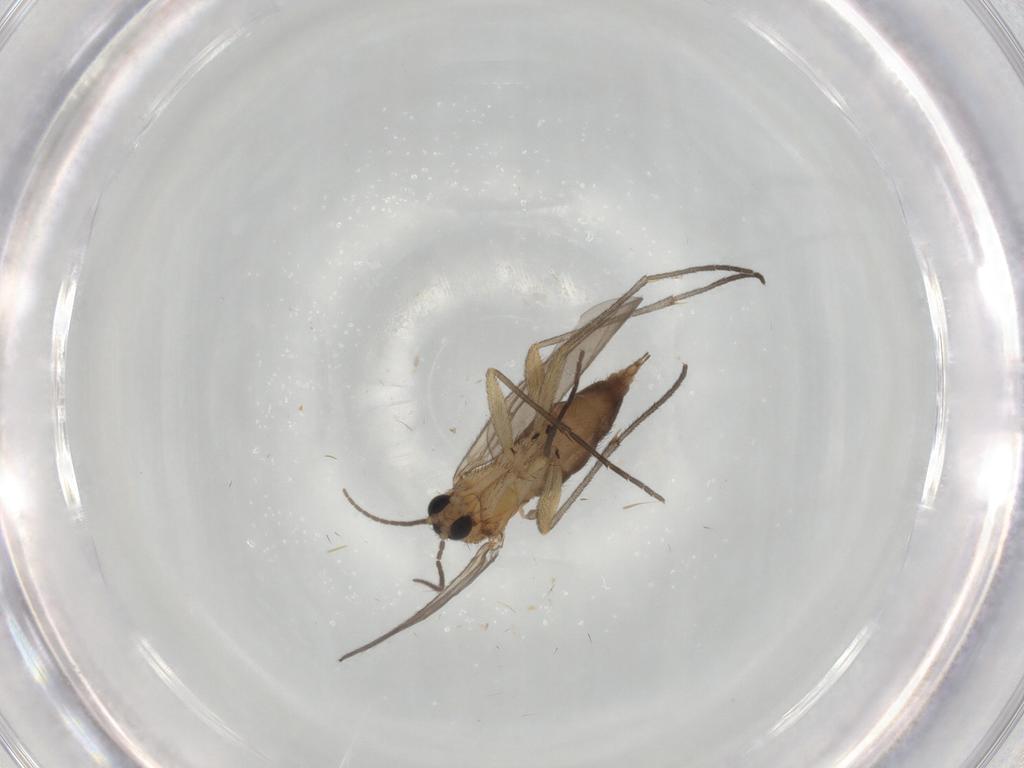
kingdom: Animalia
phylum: Arthropoda
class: Insecta
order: Diptera
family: Sciaridae
